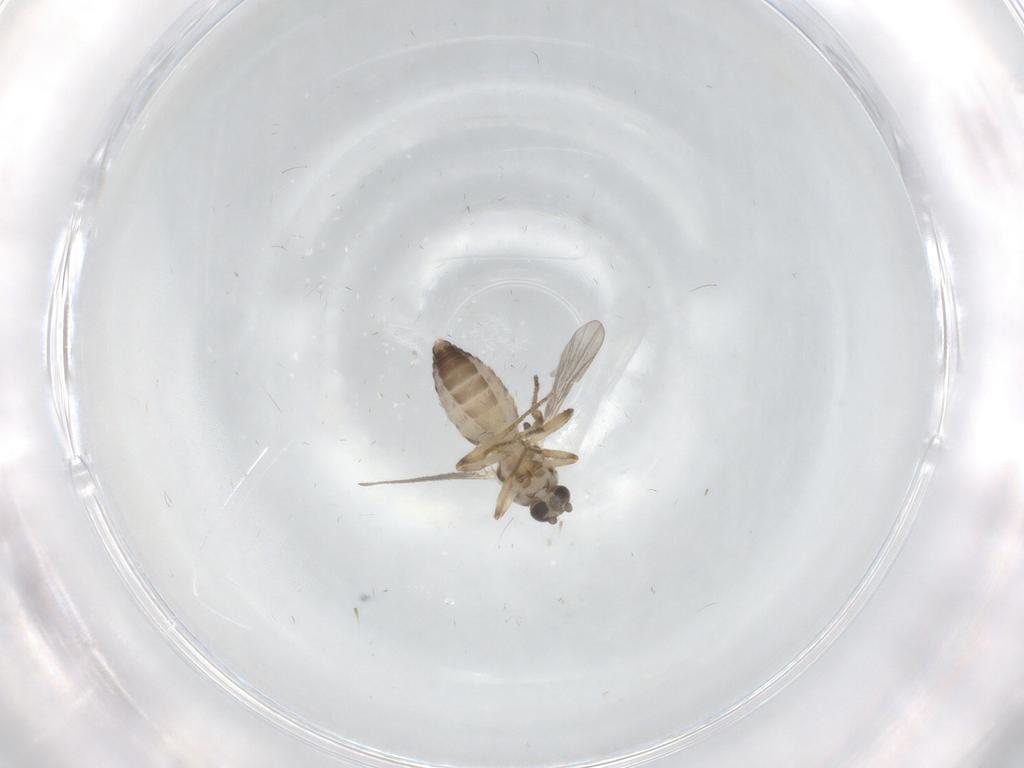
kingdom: Animalia
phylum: Arthropoda
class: Insecta
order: Diptera
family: Ceratopogonidae
